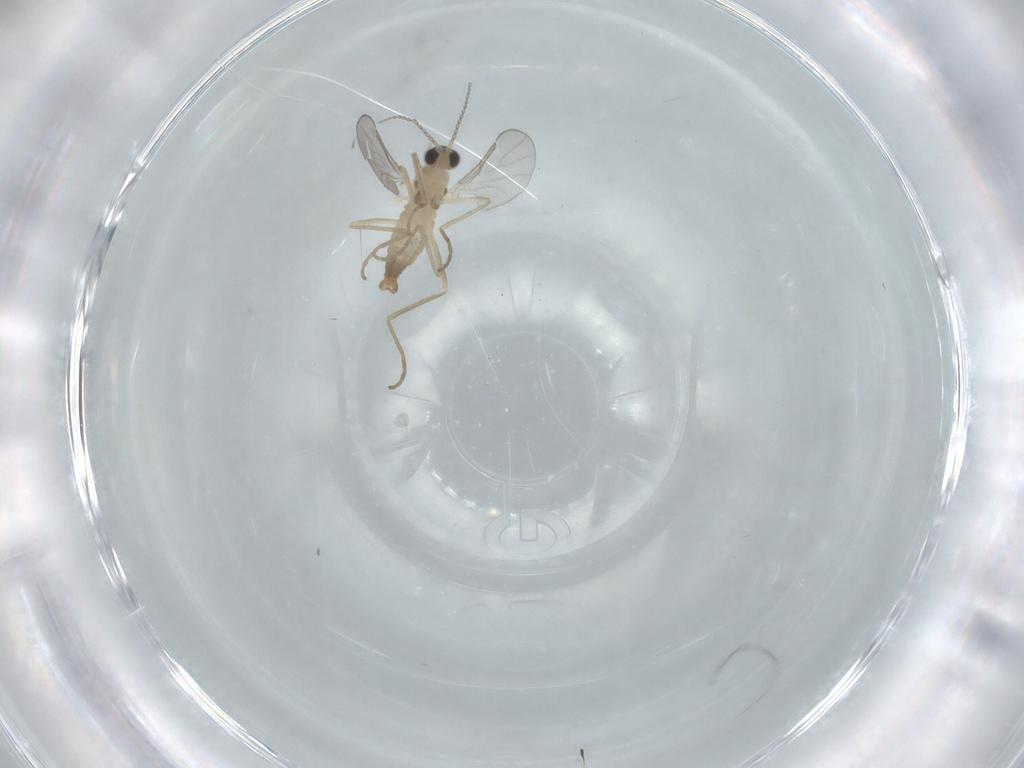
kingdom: Animalia
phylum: Arthropoda
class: Insecta
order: Diptera
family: Cecidomyiidae
